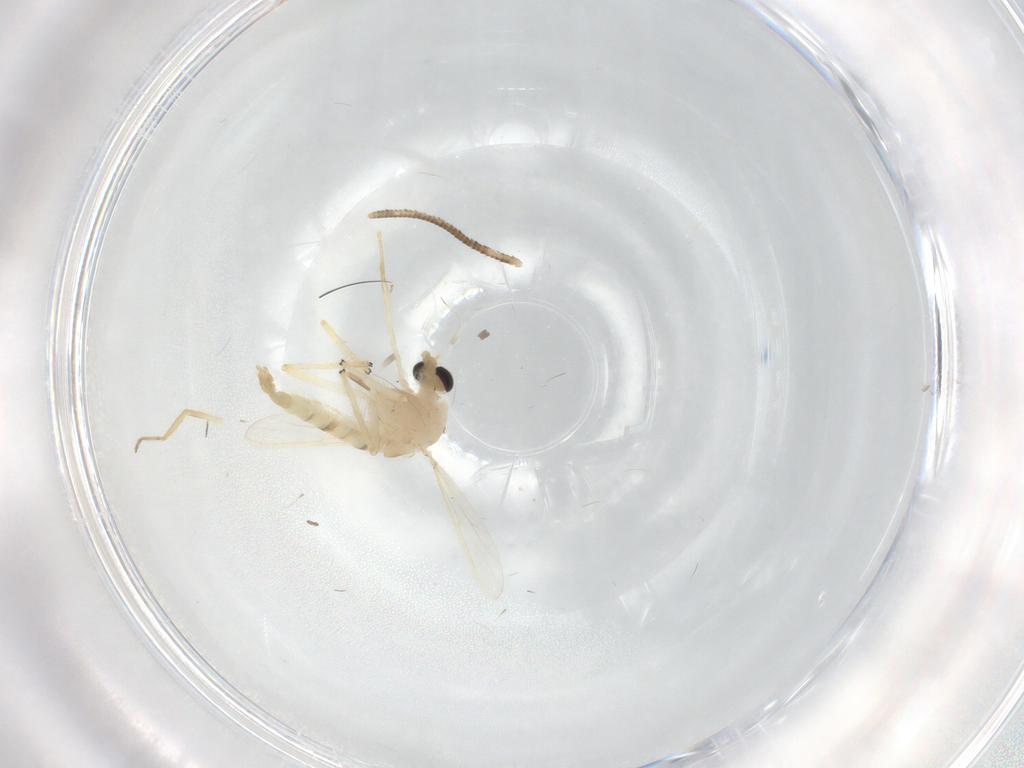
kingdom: Animalia
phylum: Arthropoda
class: Insecta
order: Diptera
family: Chironomidae
